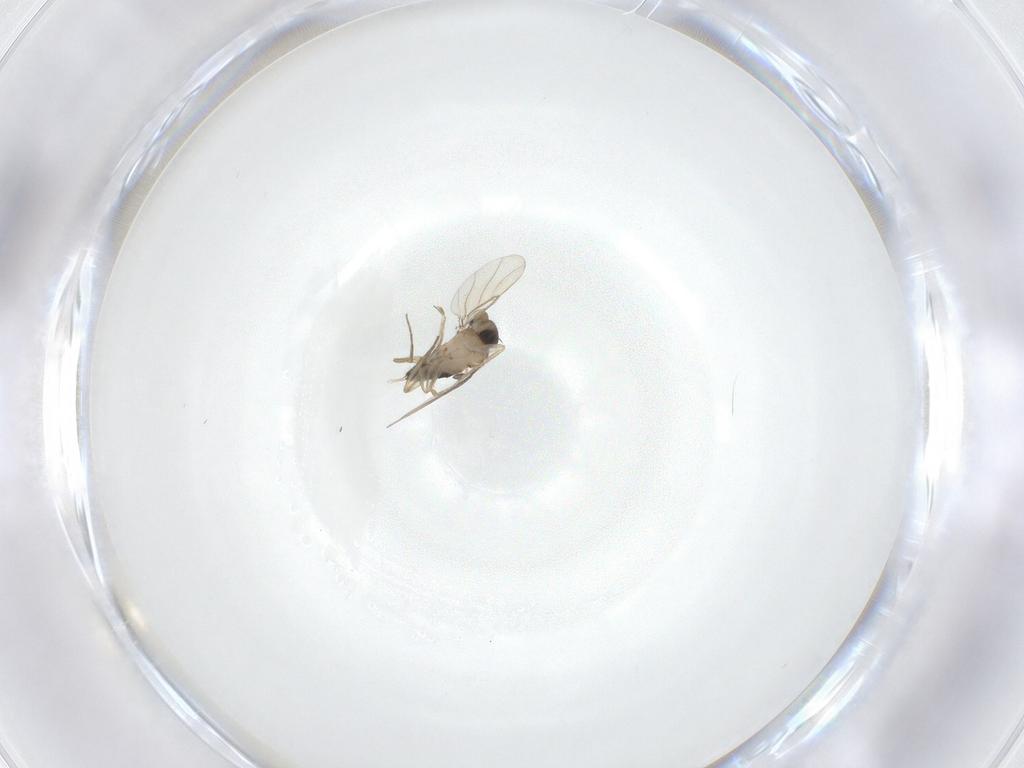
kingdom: Animalia
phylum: Arthropoda
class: Insecta
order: Diptera
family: Phoridae
